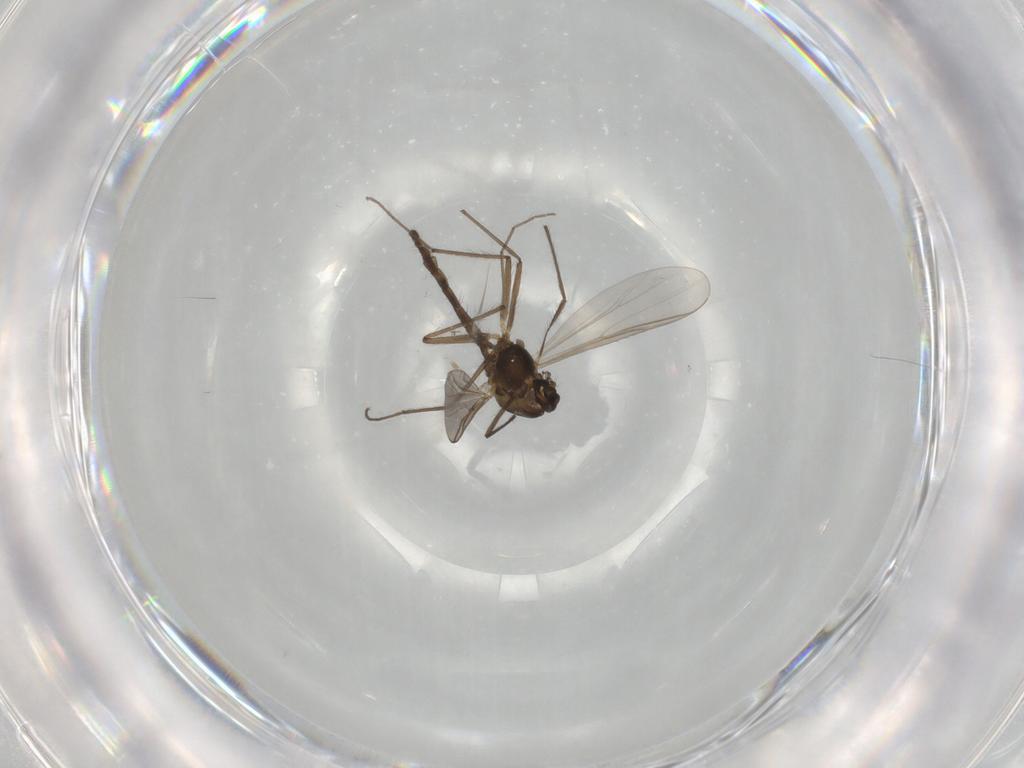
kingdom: Animalia
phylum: Arthropoda
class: Insecta
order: Diptera
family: Chironomidae
